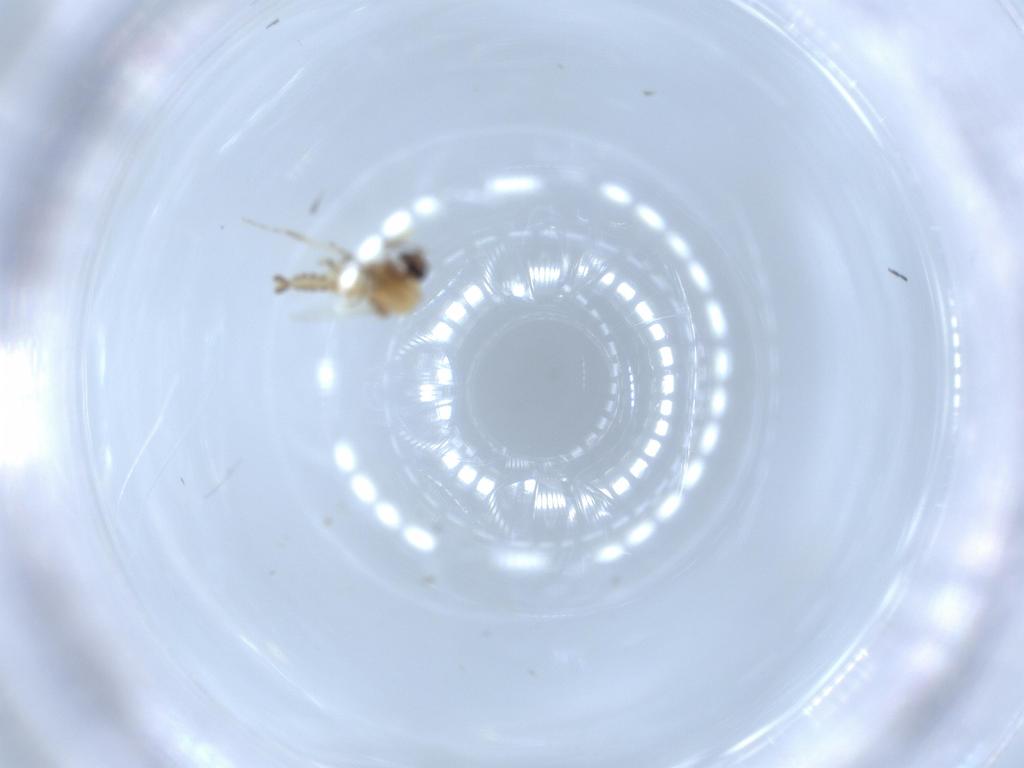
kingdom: Animalia
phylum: Arthropoda
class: Insecta
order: Diptera
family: Ceratopogonidae
